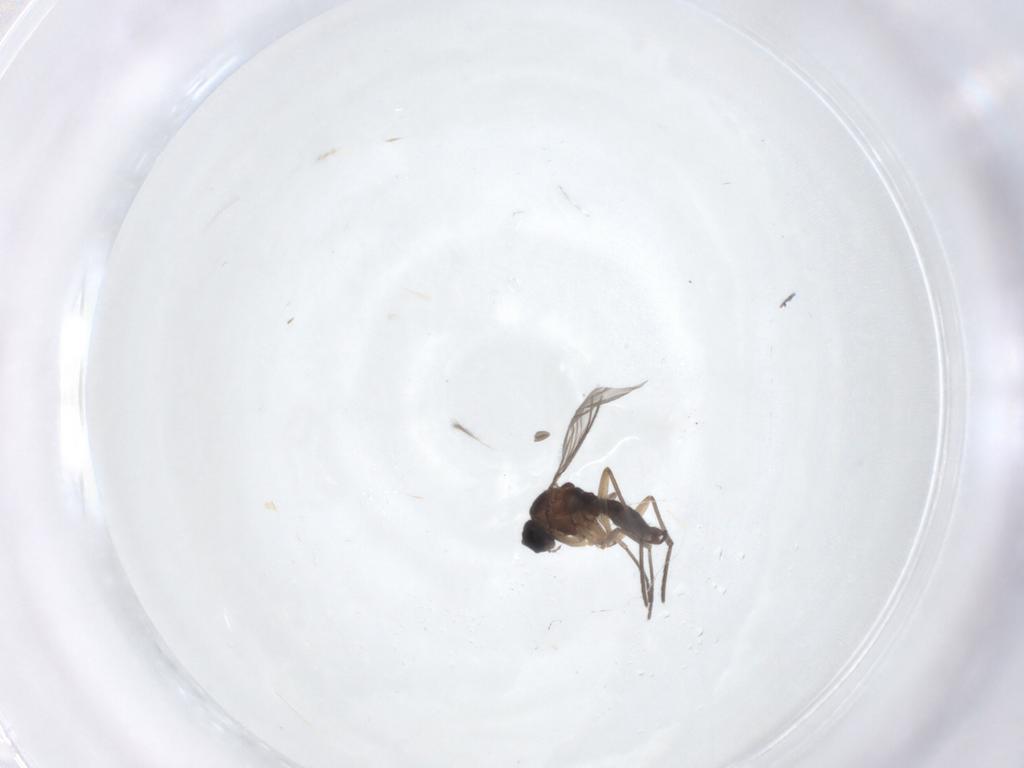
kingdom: Animalia
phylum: Arthropoda
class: Insecta
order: Diptera
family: Sciaridae
